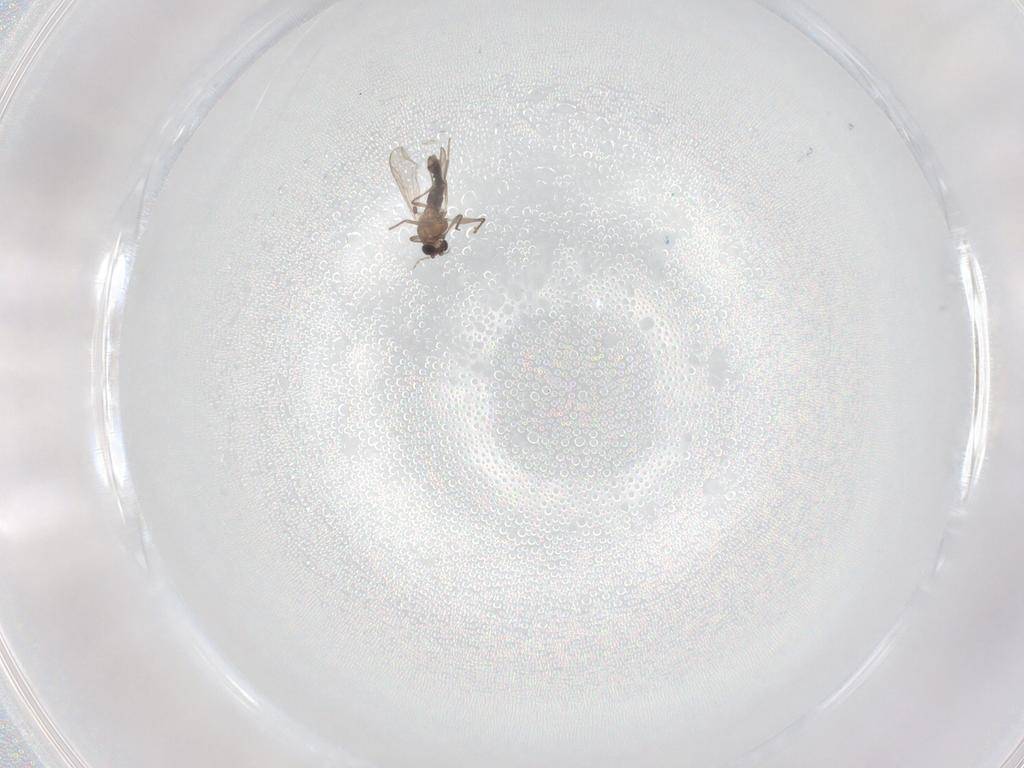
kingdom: Animalia
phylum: Arthropoda
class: Insecta
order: Diptera
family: Chironomidae
